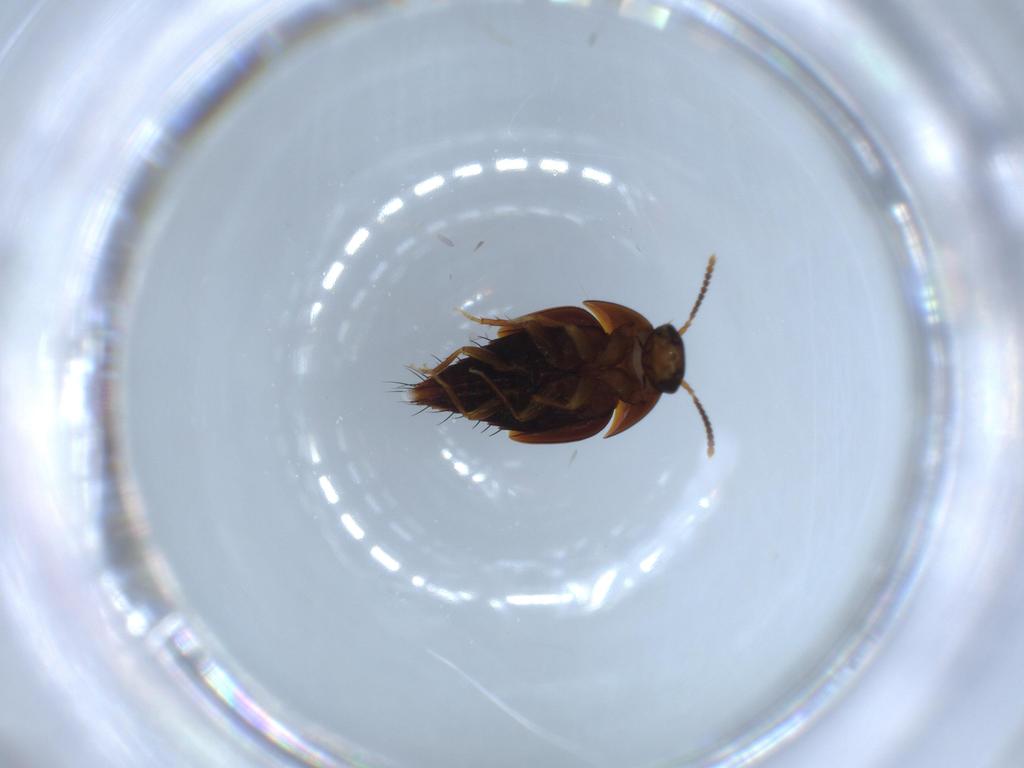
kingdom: Animalia
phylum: Arthropoda
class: Insecta
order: Coleoptera
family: Staphylinidae
